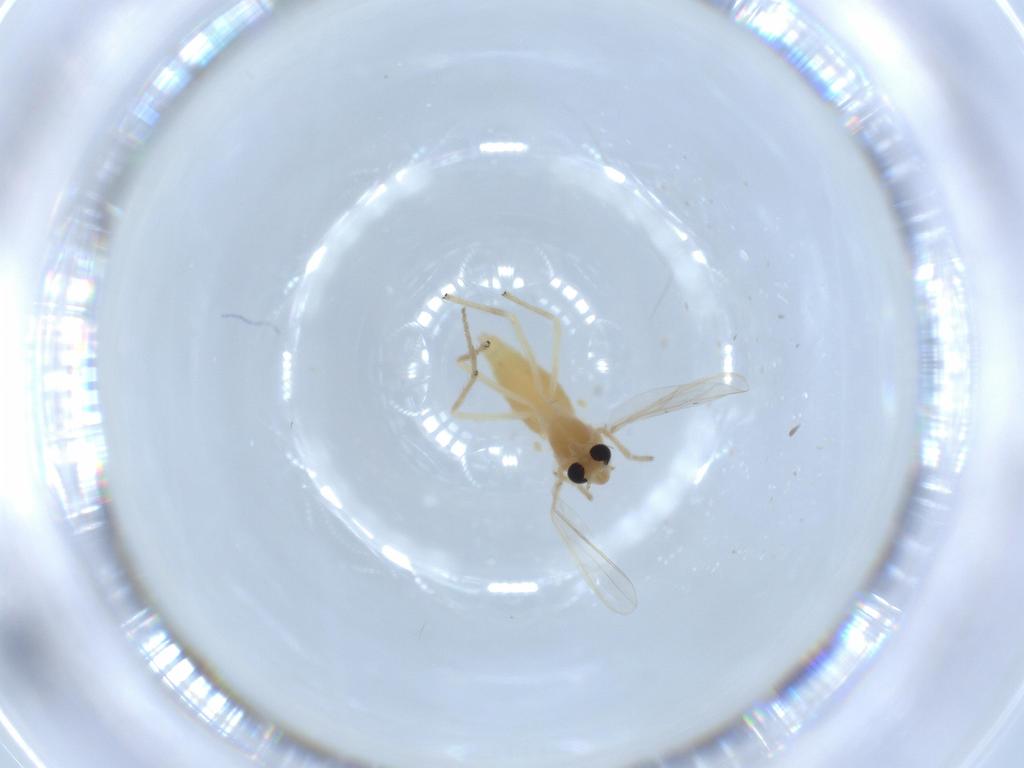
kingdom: Animalia
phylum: Arthropoda
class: Insecta
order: Diptera
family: Chironomidae
